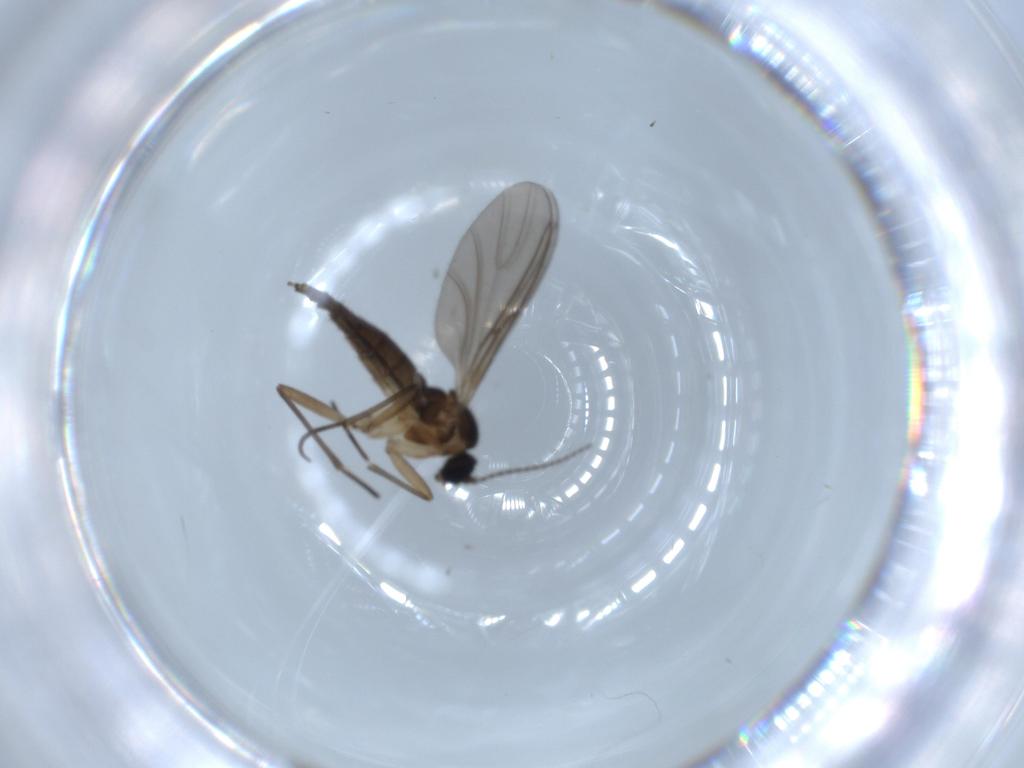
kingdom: Animalia
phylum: Arthropoda
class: Insecta
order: Diptera
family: Sciaridae
